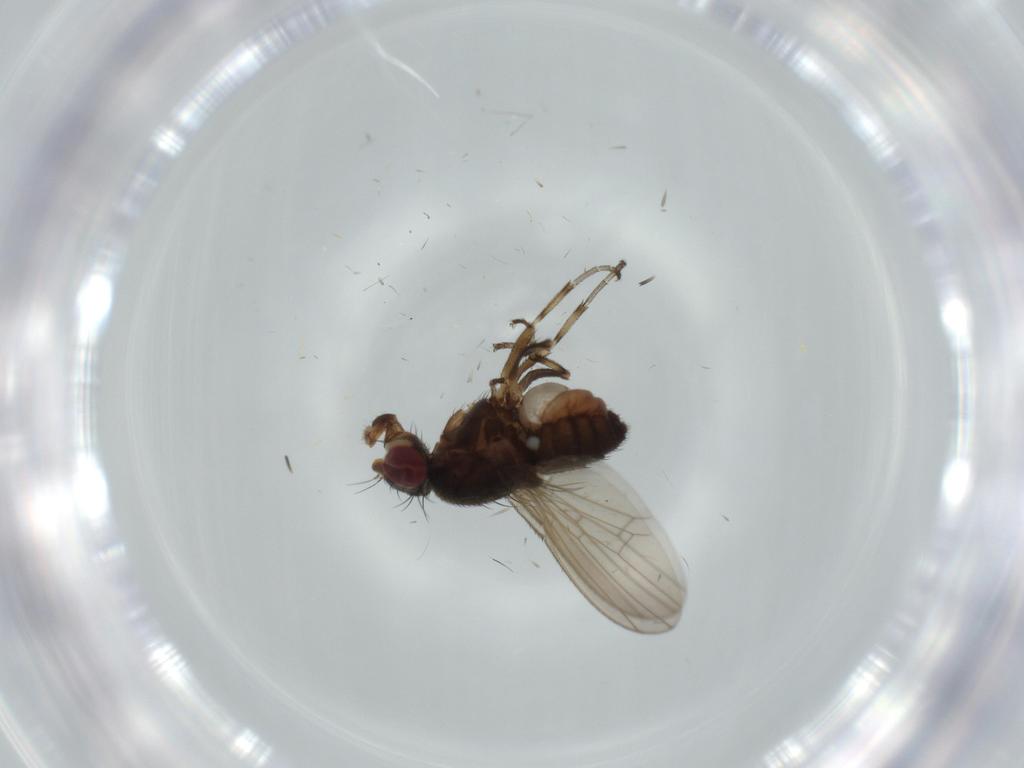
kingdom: Animalia
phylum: Arthropoda
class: Insecta
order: Diptera
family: Heleomyzidae
